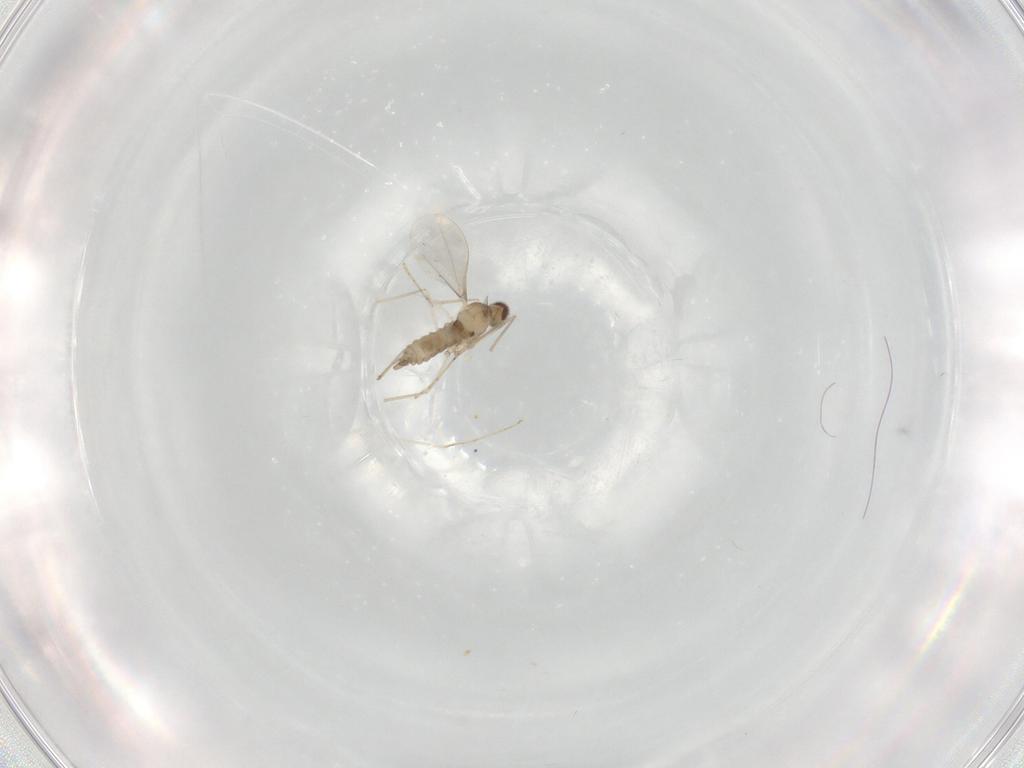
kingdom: Animalia
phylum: Arthropoda
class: Insecta
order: Diptera
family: Cecidomyiidae
